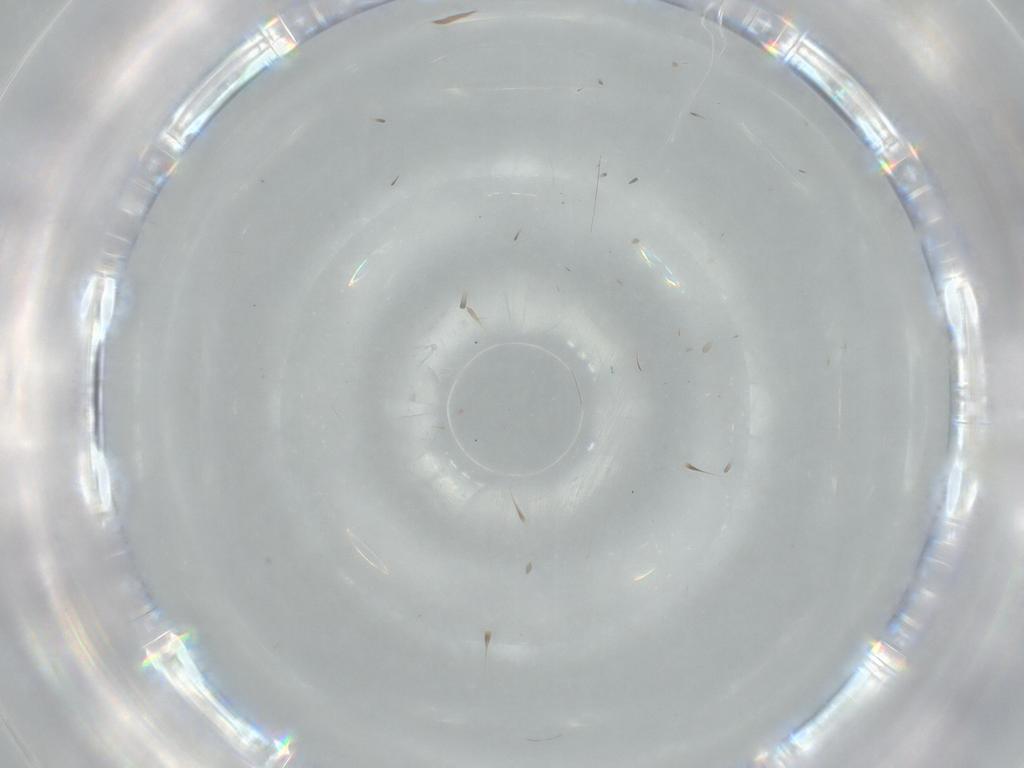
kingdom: Animalia
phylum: Arthropoda
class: Arachnida
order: Trombidiformes
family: Eupodidae
